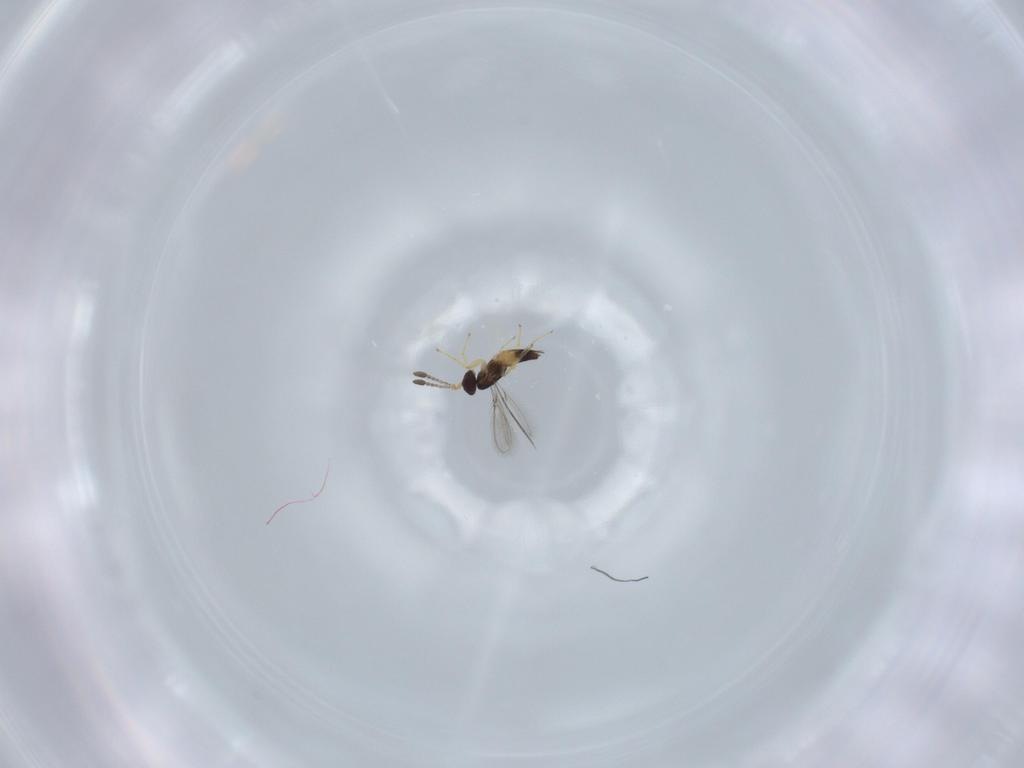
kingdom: Animalia
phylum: Arthropoda
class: Insecta
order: Hymenoptera
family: Mymaridae
